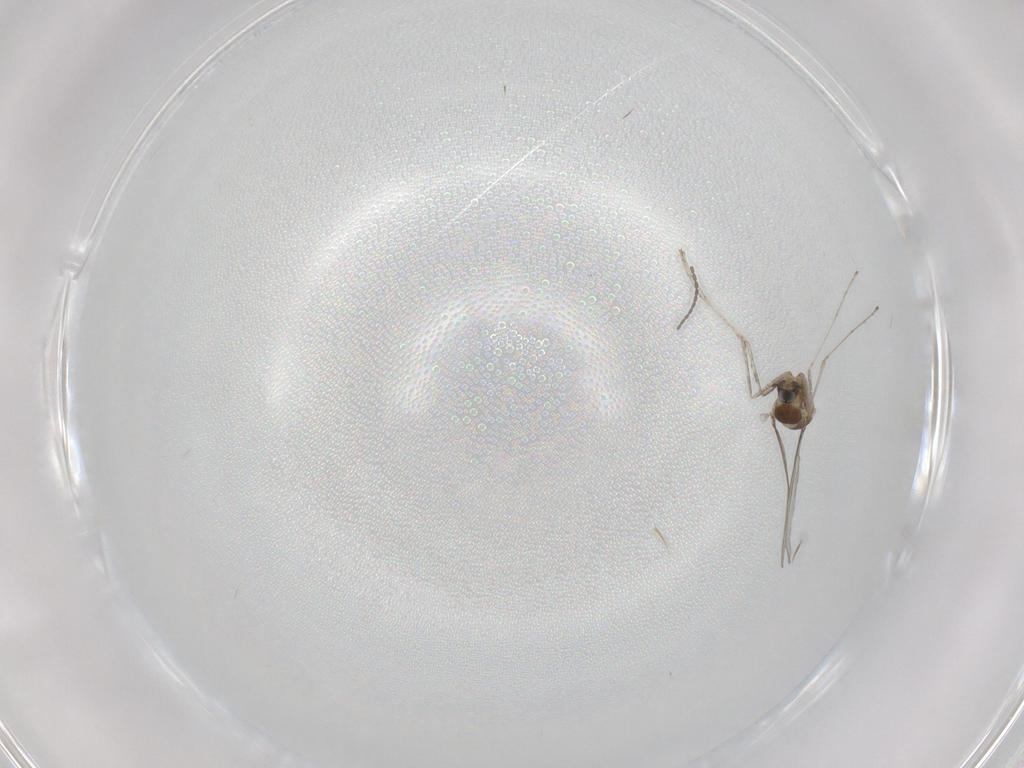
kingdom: Animalia
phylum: Arthropoda
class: Insecta
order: Diptera
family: Cecidomyiidae
